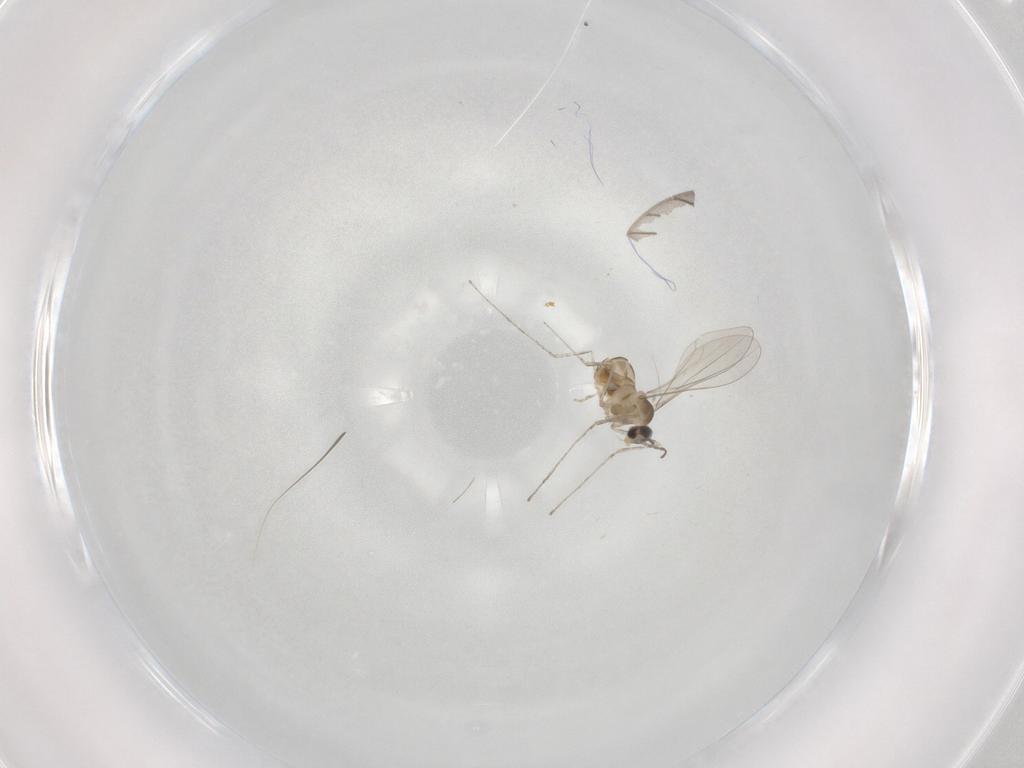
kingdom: Animalia
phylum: Arthropoda
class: Insecta
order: Diptera
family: Cecidomyiidae
